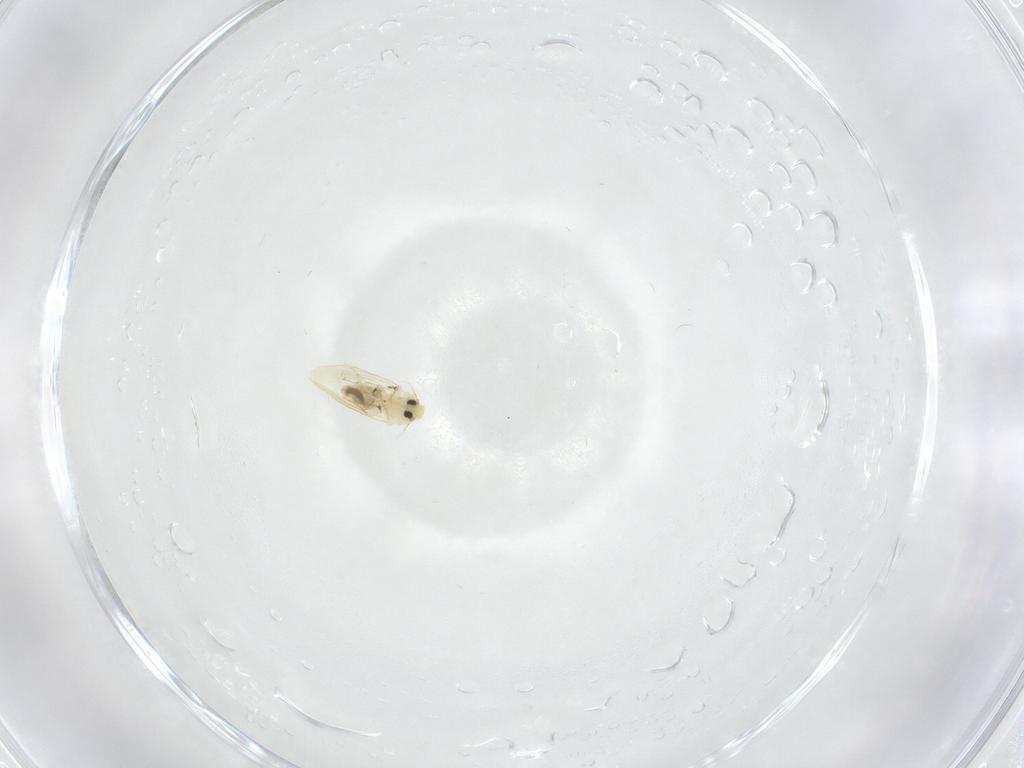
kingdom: Animalia
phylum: Arthropoda
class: Insecta
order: Hemiptera
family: Aleyrodidae
